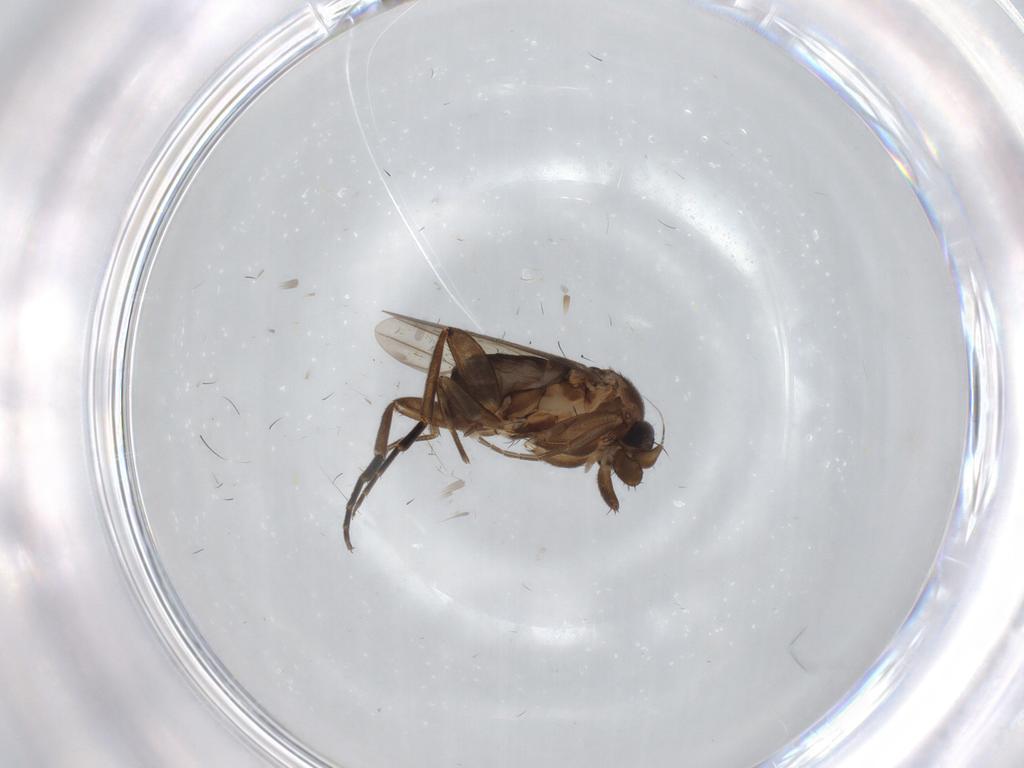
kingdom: Animalia
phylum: Arthropoda
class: Insecta
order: Diptera
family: Phoridae
